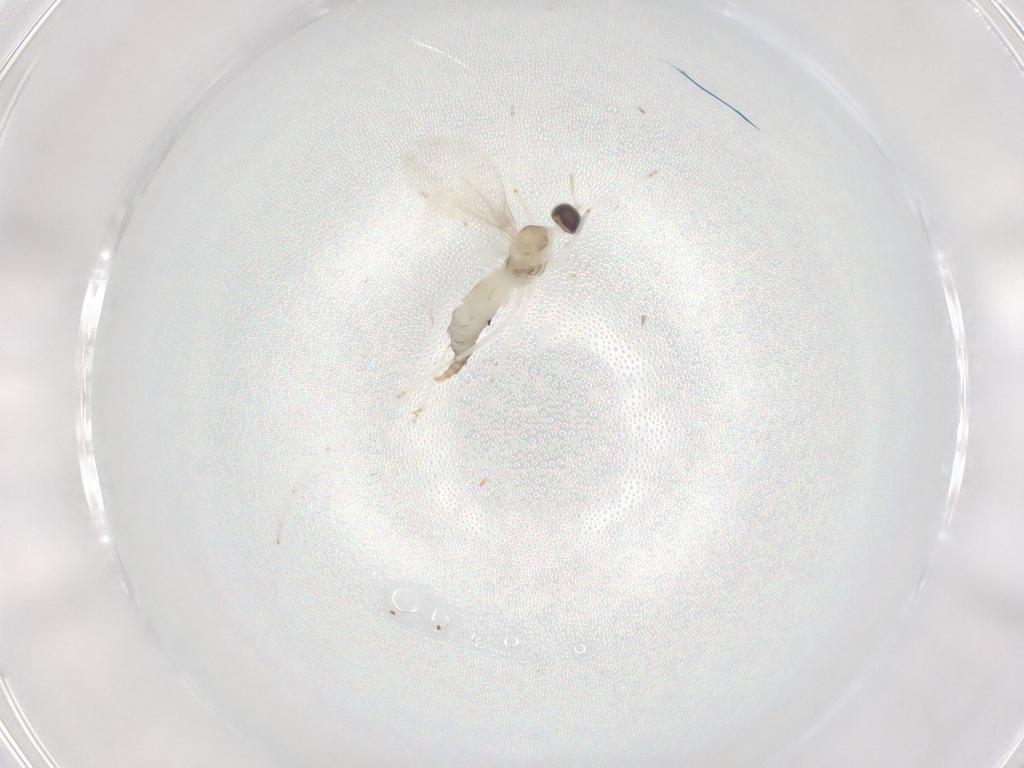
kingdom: Animalia
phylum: Arthropoda
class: Insecta
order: Diptera
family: Cecidomyiidae
